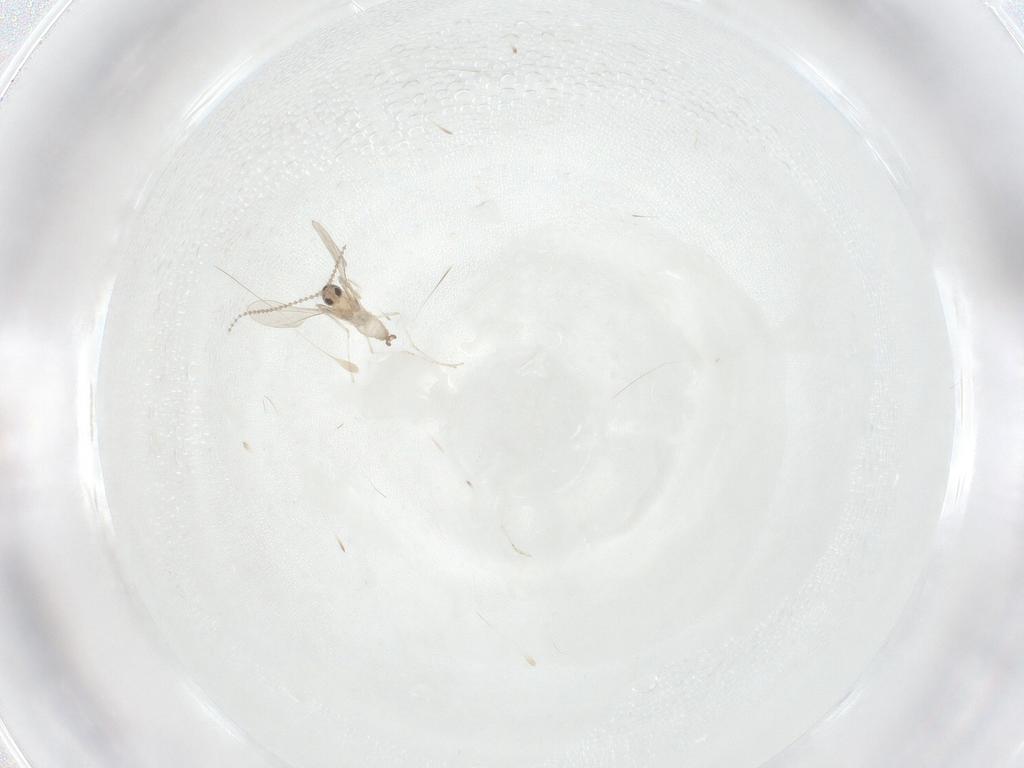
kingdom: Animalia
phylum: Arthropoda
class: Insecta
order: Diptera
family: Cecidomyiidae
